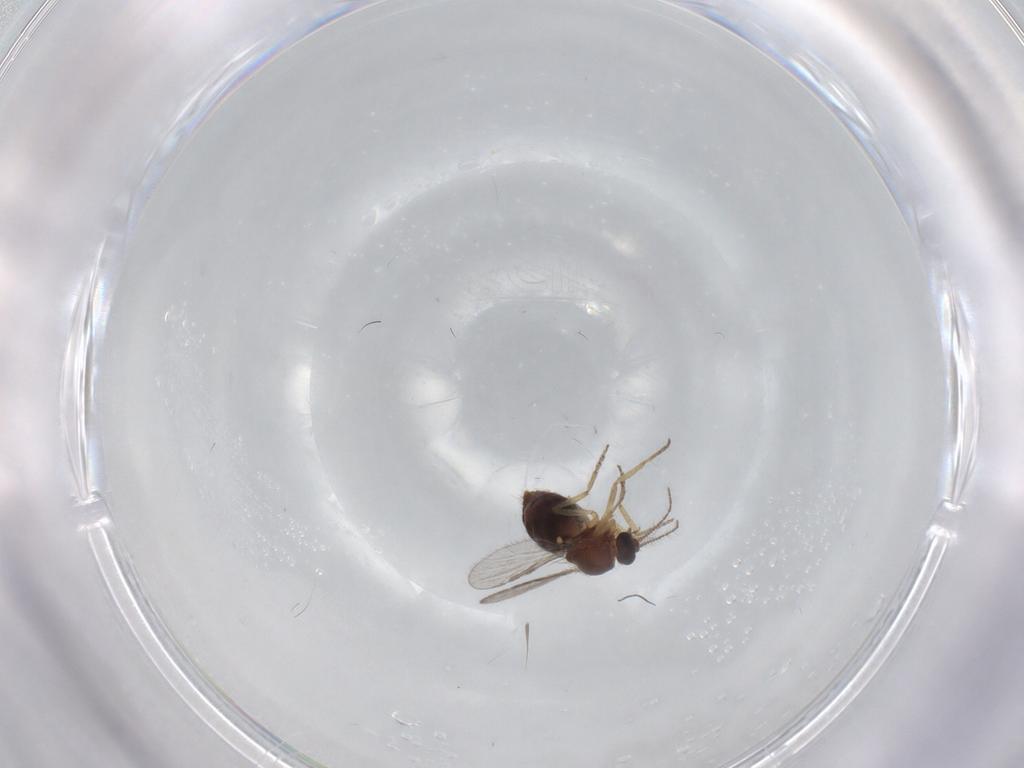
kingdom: Animalia
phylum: Arthropoda
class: Insecta
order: Diptera
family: Ceratopogonidae
